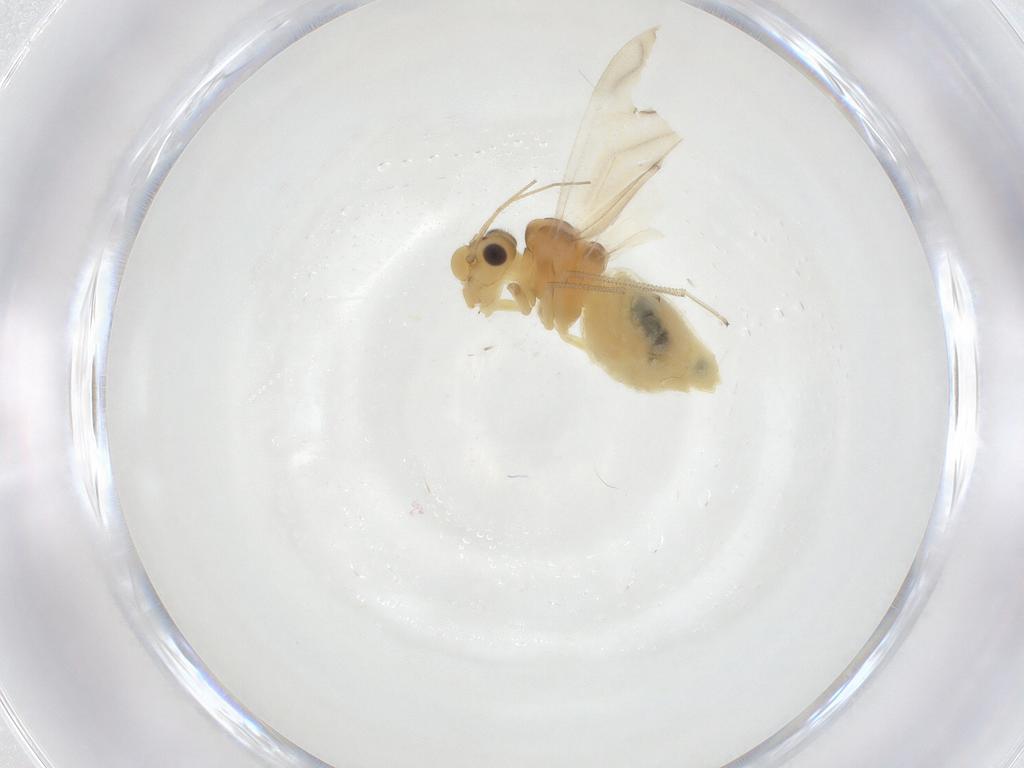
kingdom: Animalia
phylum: Arthropoda
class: Insecta
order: Psocodea
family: Caeciliusidae
